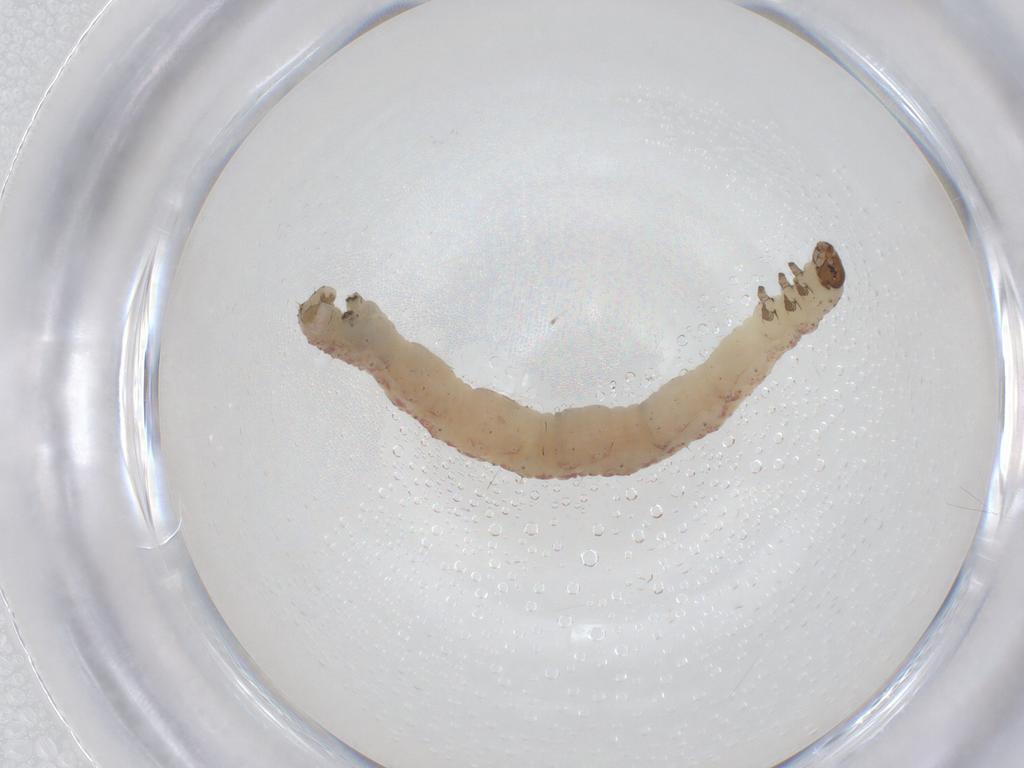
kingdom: Animalia
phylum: Arthropoda
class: Insecta
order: Lepidoptera
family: Geometridae
